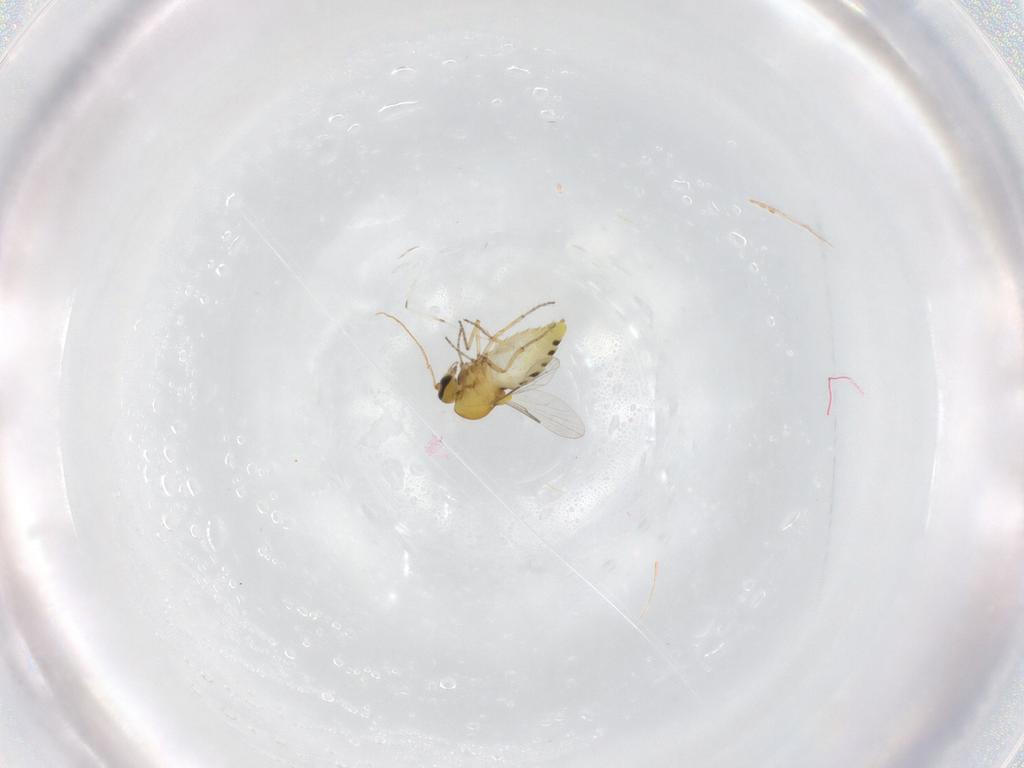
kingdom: Animalia
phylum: Arthropoda
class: Insecta
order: Diptera
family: Ceratopogonidae
